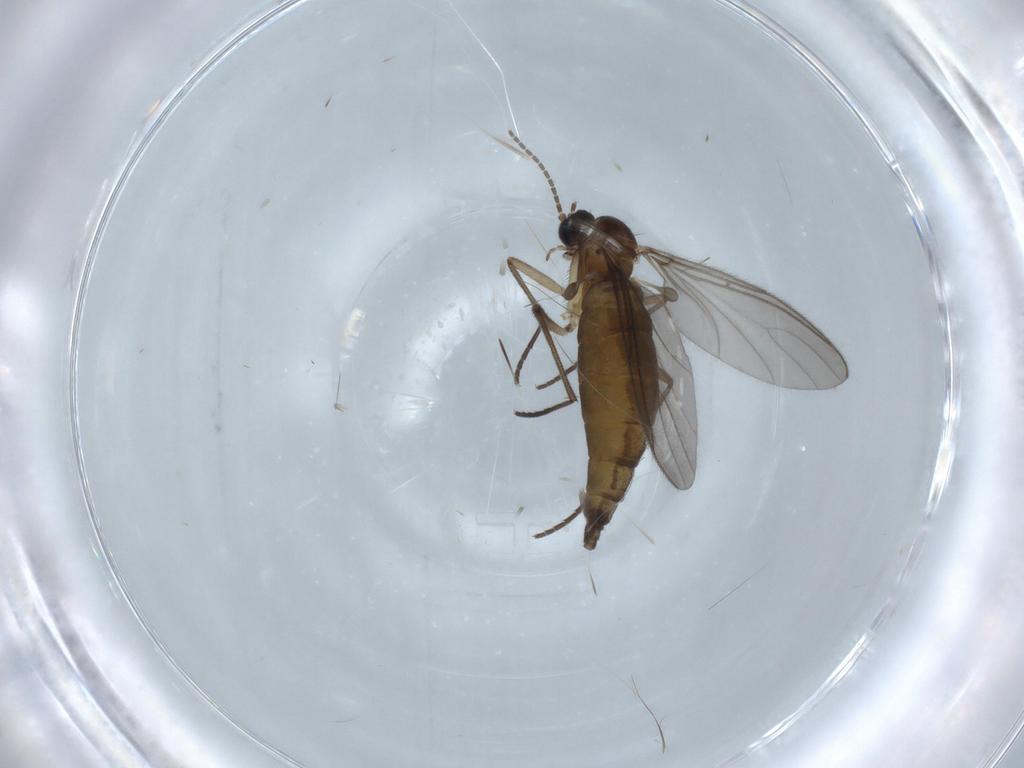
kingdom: Animalia
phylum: Arthropoda
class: Insecta
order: Diptera
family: Sciaridae
